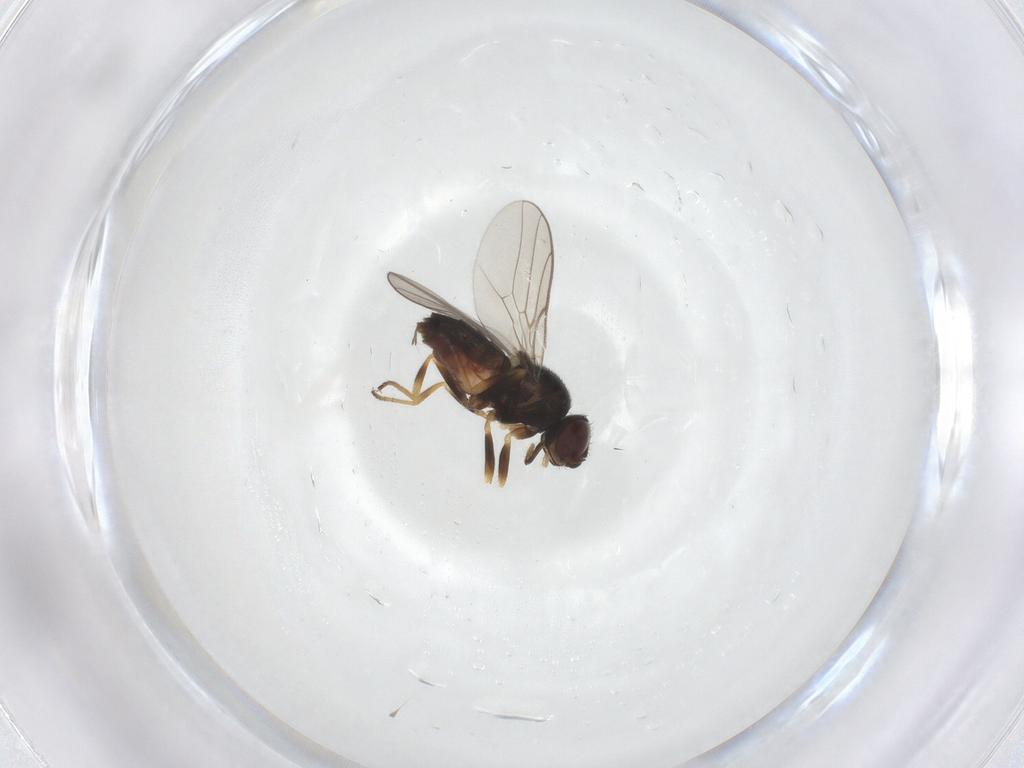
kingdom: Animalia
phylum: Arthropoda
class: Insecta
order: Diptera
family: Chloropidae
